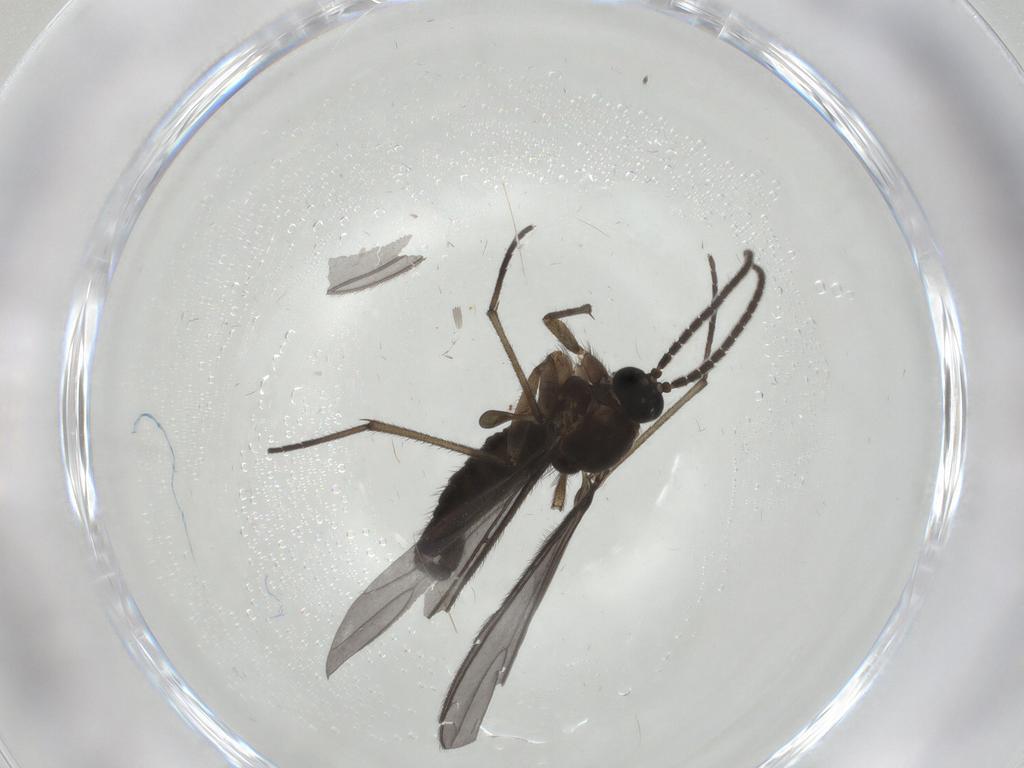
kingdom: Animalia
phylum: Arthropoda
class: Insecta
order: Diptera
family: Sciaridae
